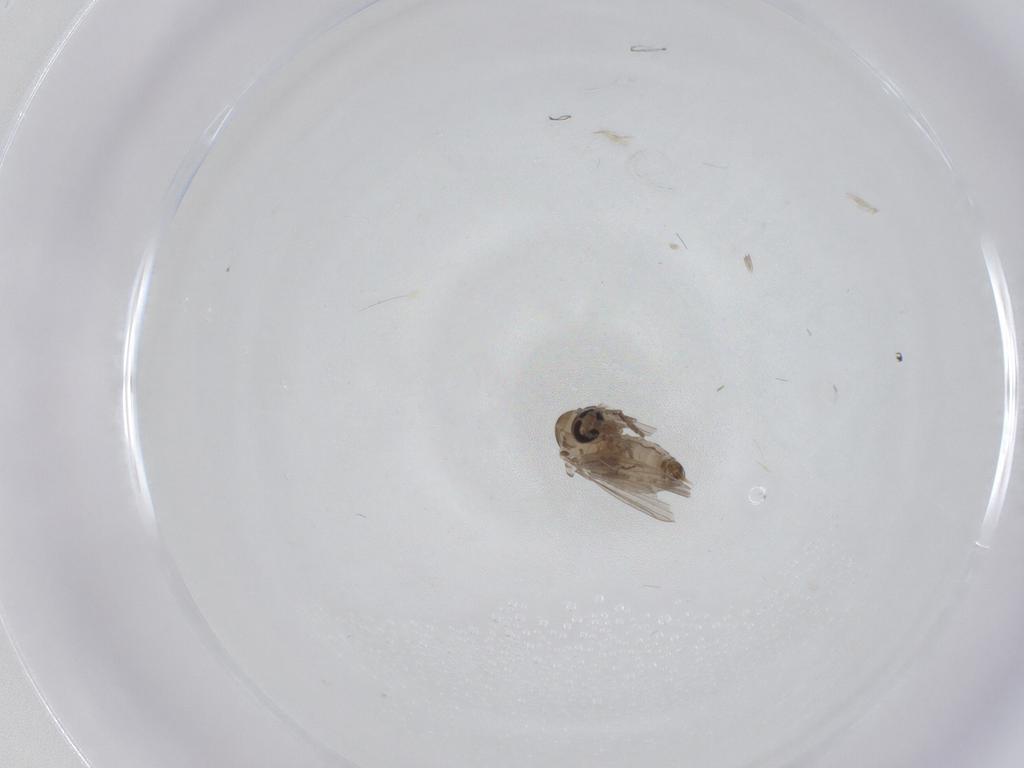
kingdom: Animalia
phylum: Arthropoda
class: Insecta
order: Diptera
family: Psychodidae
